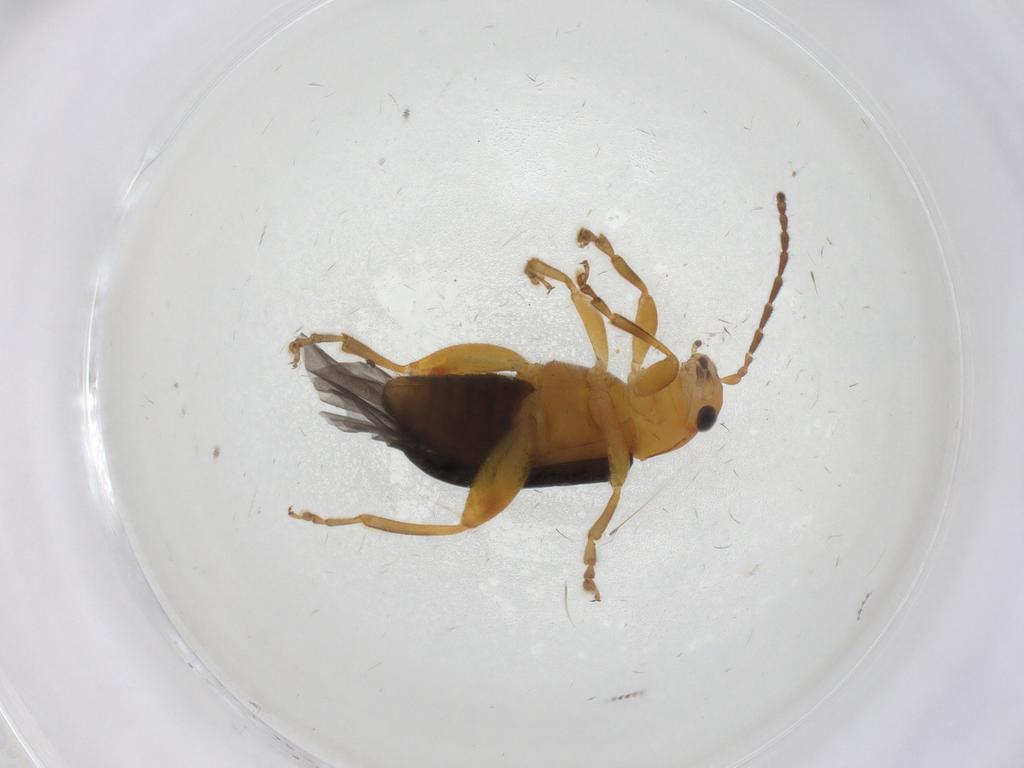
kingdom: Animalia
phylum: Arthropoda
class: Insecta
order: Coleoptera
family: Chrysomelidae
